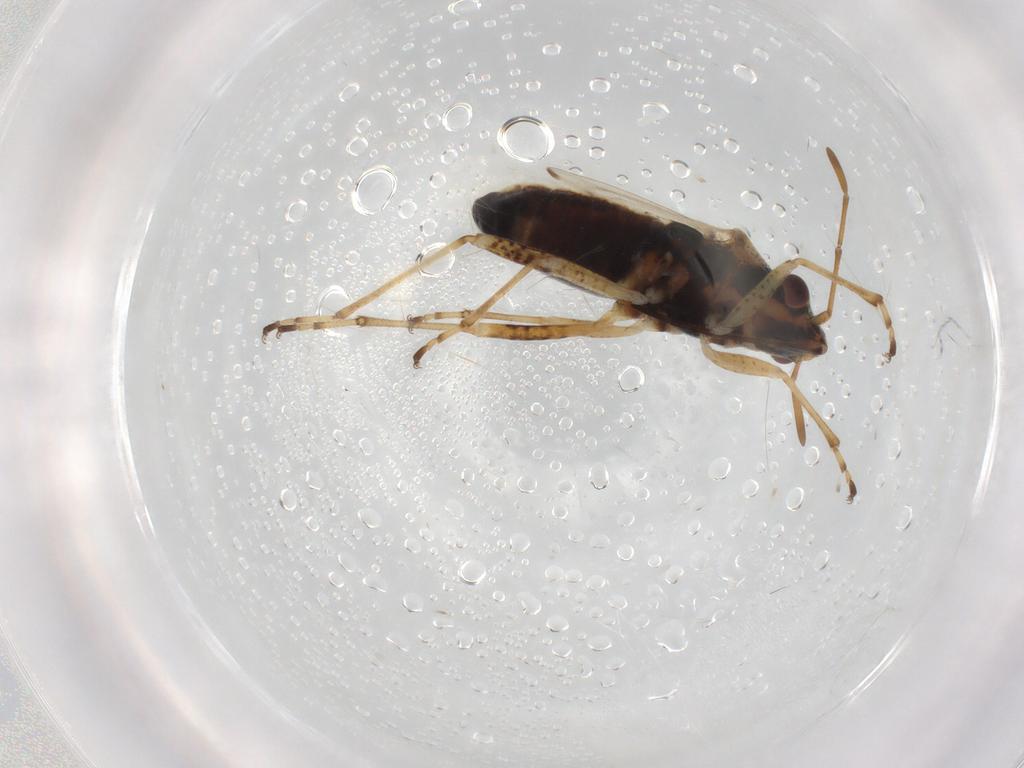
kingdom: Animalia
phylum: Arthropoda
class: Insecta
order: Hemiptera
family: Lygaeidae
